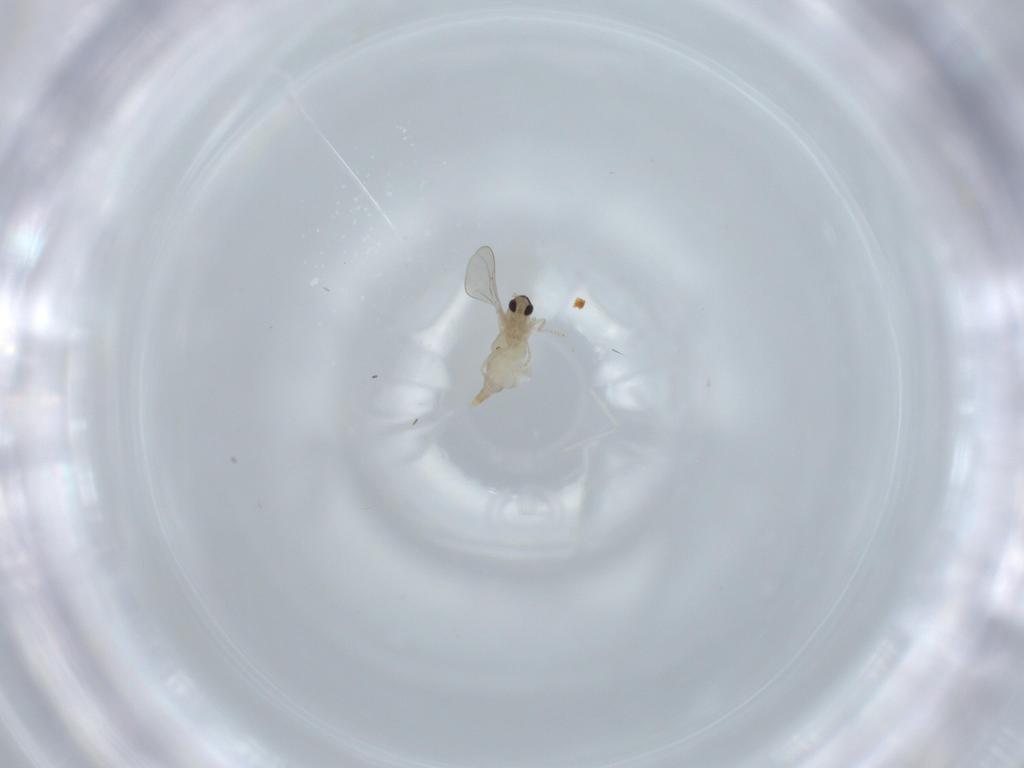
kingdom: Animalia
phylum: Arthropoda
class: Insecta
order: Diptera
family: Cecidomyiidae
